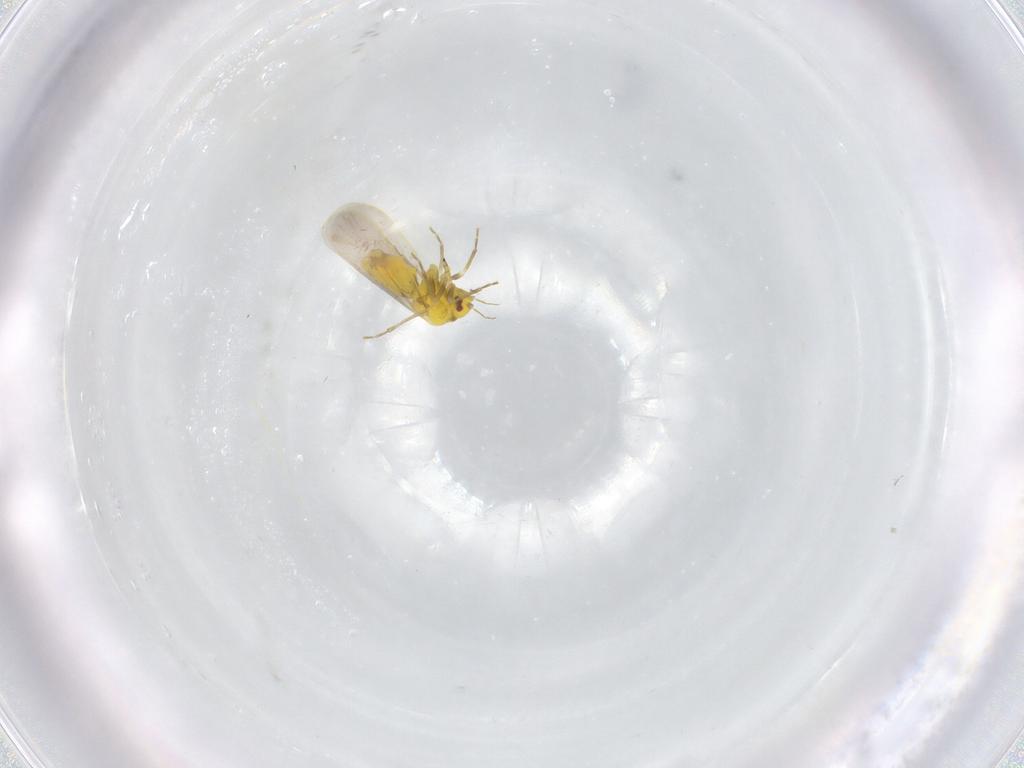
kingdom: Animalia
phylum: Arthropoda
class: Insecta
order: Hemiptera
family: Aleyrodidae
